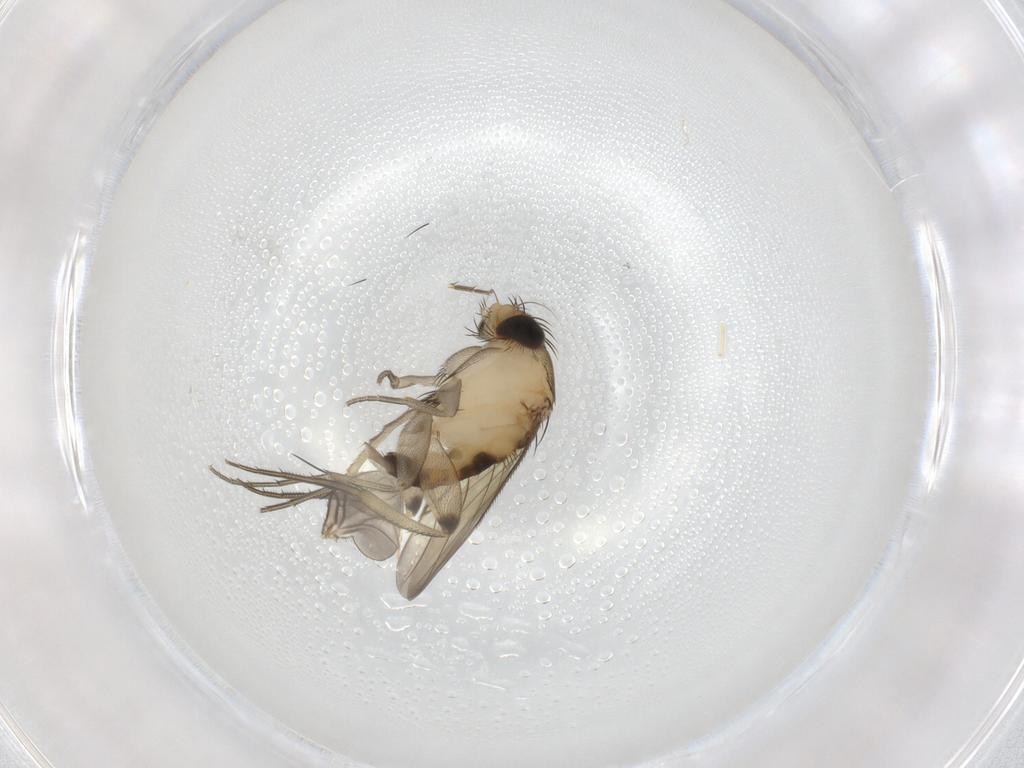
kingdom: Animalia
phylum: Arthropoda
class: Insecta
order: Diptera
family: Phoridae
